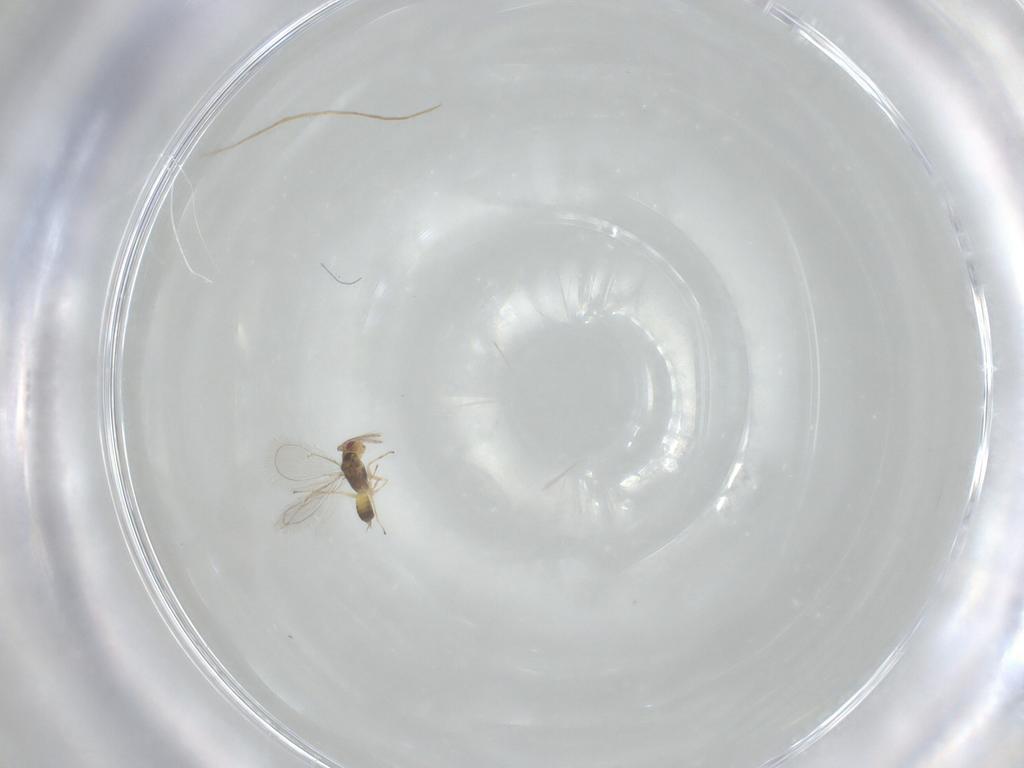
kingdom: Animalia
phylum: Arthropoda
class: Insecta
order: Hymenoptera
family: Eulophidae
